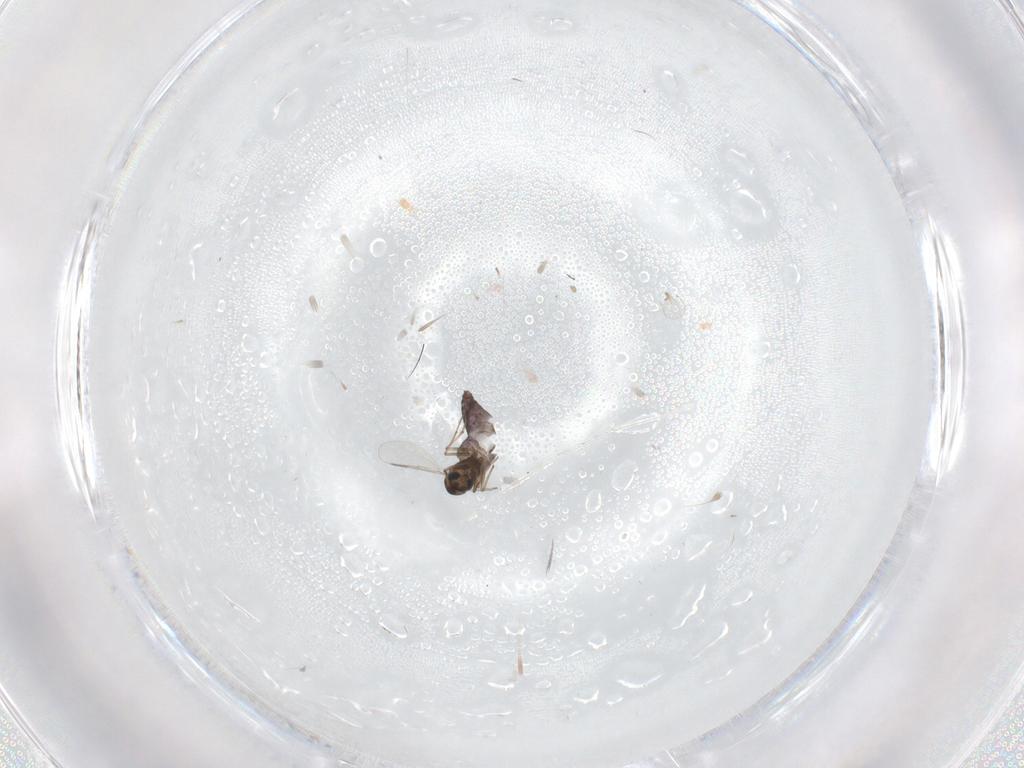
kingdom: Animalia
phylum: Arthropoda
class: Insecta
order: Diptera
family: Chironomidae
